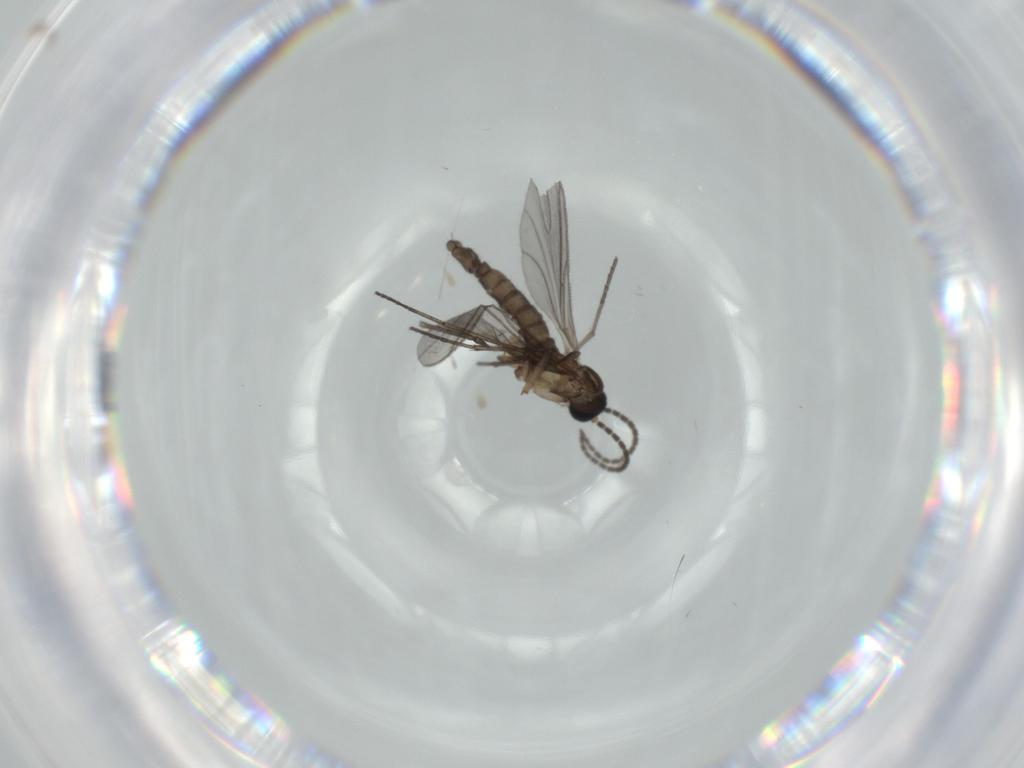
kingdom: Animalia
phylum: Arthropoda
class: Insecta
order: Diptera
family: Sciaridae
